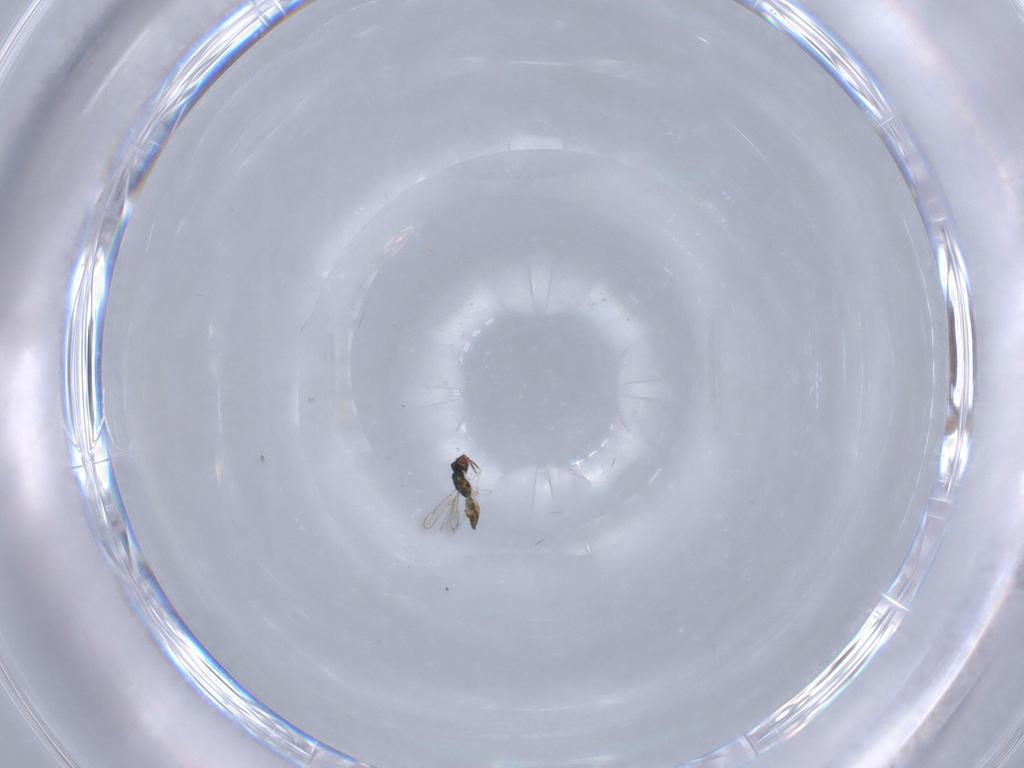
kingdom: Animalia
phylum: Arthropoda
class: Insecta
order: Hymenoptera
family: Eulophidae
